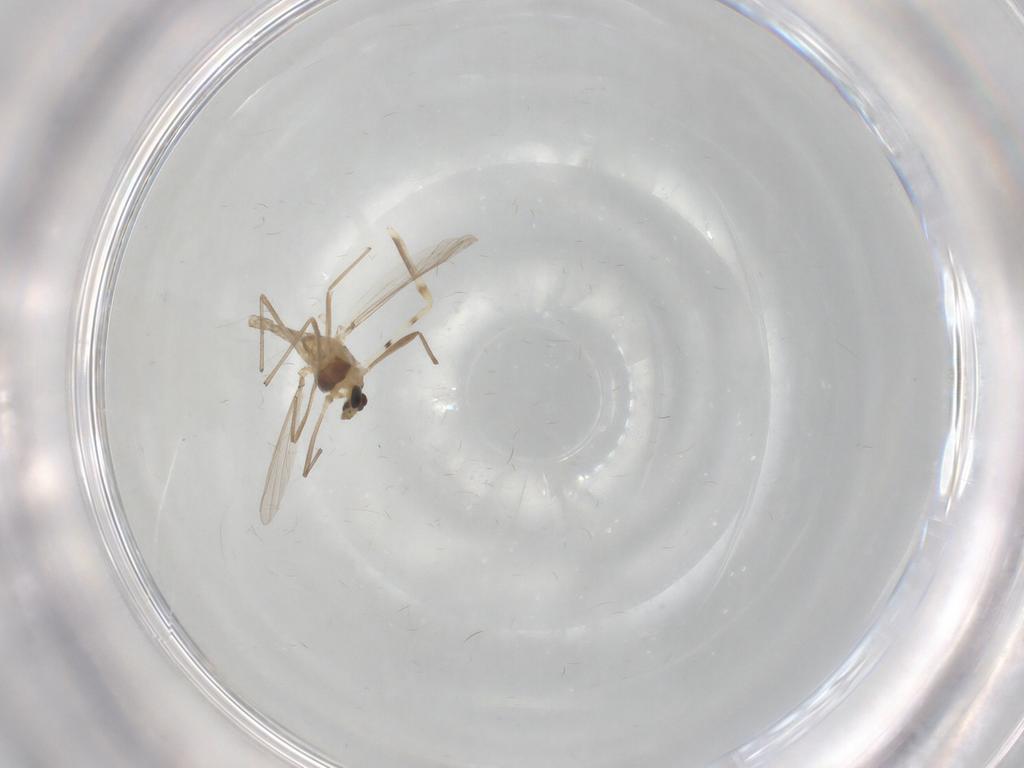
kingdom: Animalia
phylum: Arthropoda
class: Insecta
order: Diptera
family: Chironomidae
